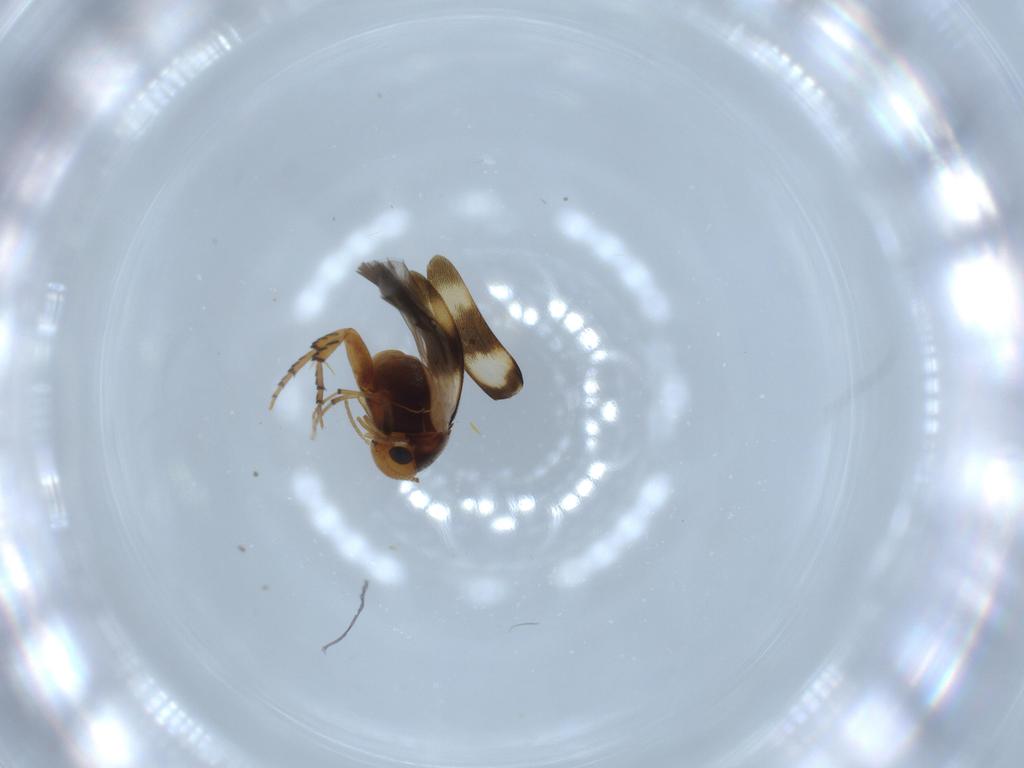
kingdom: Animalia
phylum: Arthropoda
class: Insecta
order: Coleoptera
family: Mordellidae
